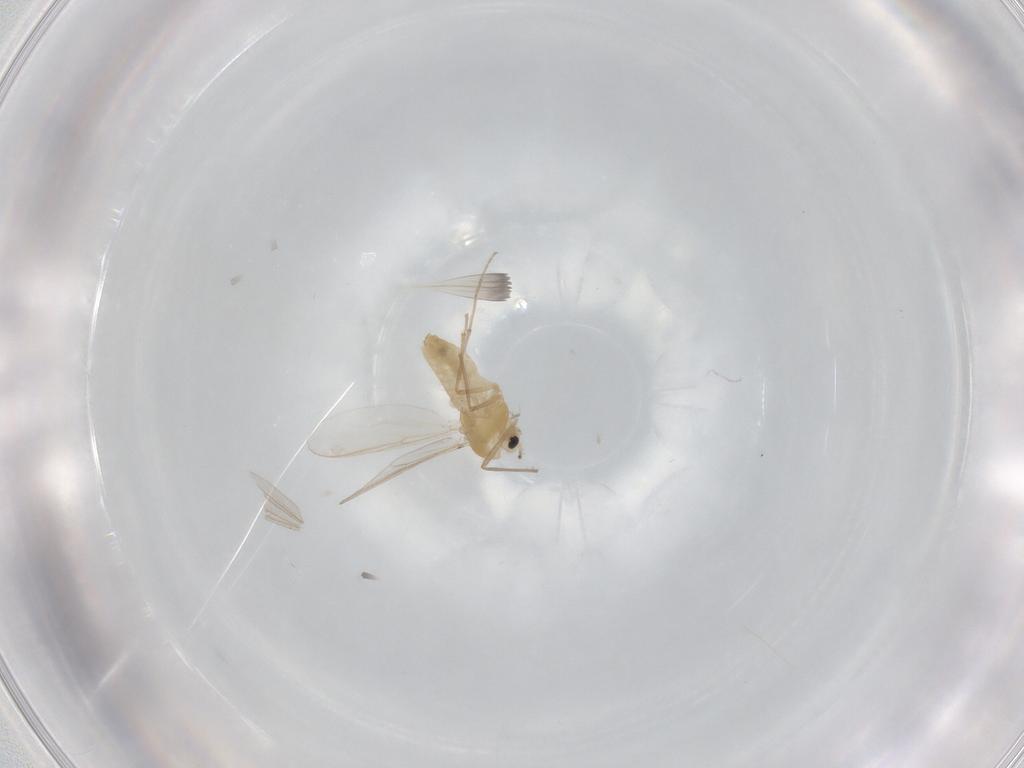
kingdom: Animalia
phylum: Arthropoda
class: Insecta
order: Diptera
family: Chironomidae
